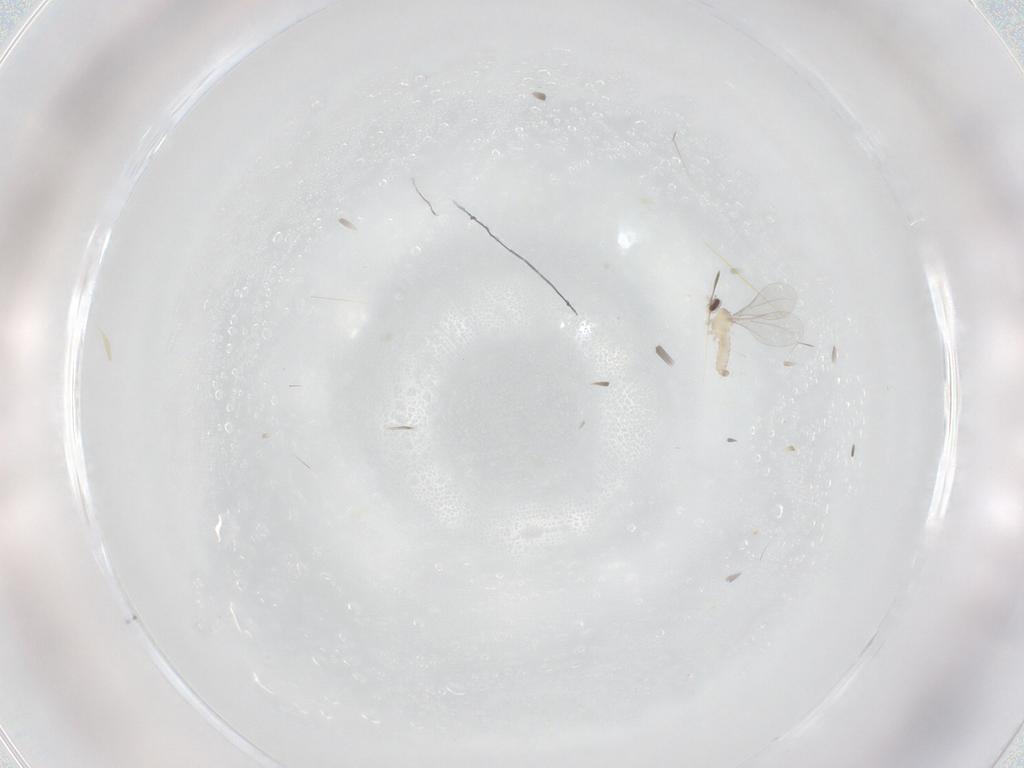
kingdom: Animalia
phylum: Arthropoda
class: Insecta
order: Diptera
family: Cecidomyiidae
